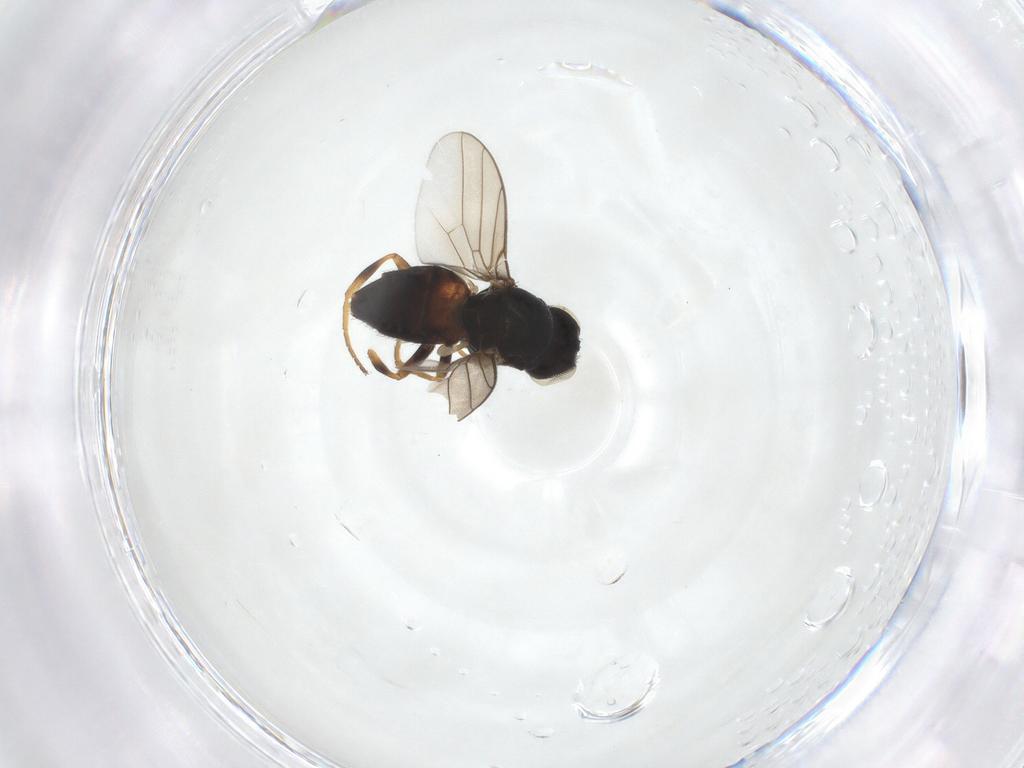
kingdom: Animalia
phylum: Arthropoda
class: Insecta
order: Diptera
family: Chloropidae
